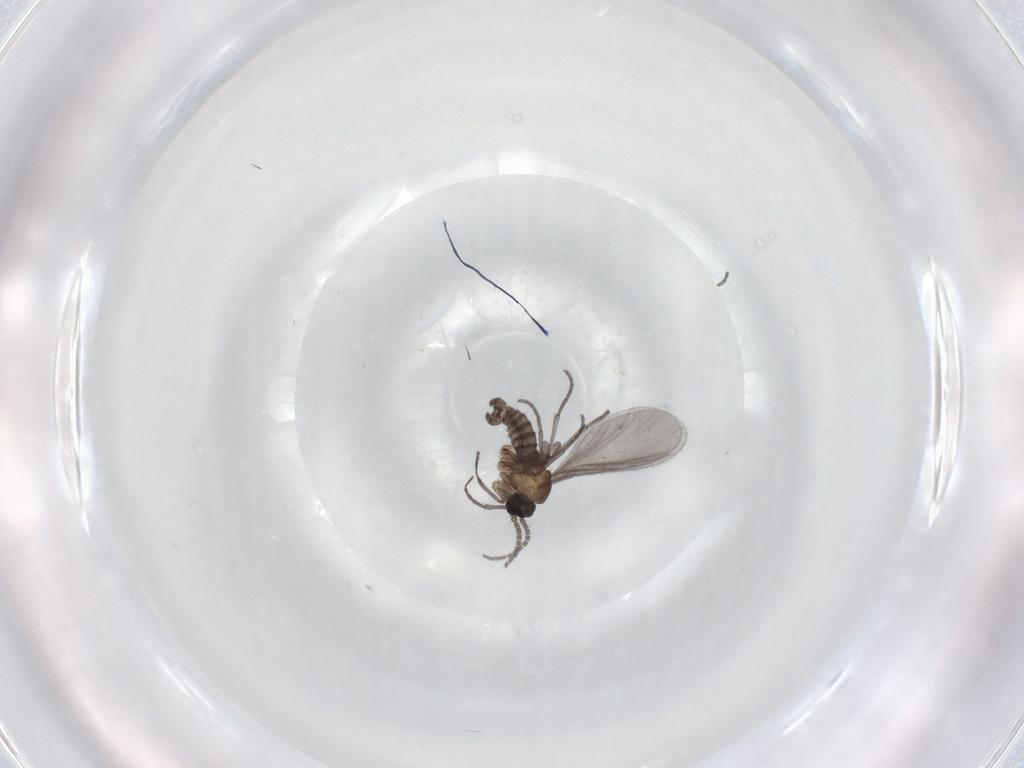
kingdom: Animalia
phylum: Arthropoda
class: Insecta
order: Diptera
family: Sciaridae
